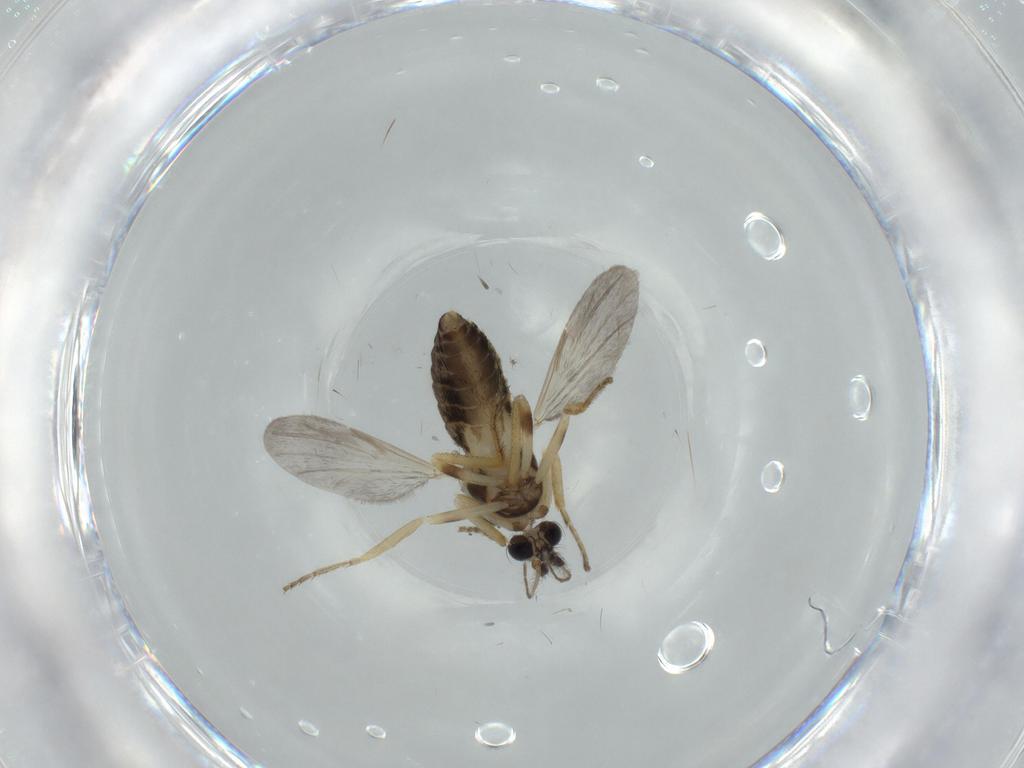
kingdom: Animalia
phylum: Arthropoda
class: Insecta
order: Diptera
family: Ceratopogonidae
